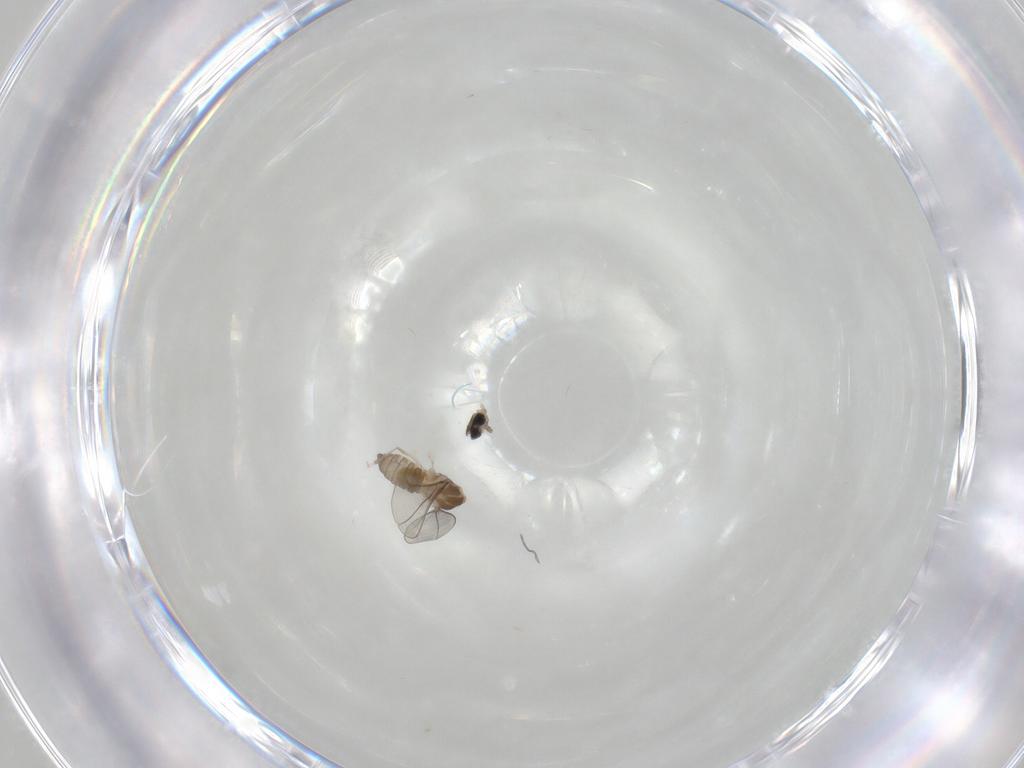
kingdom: Animalia
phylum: Arthropoda
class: Insecta
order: Diptera
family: Cecidomyiidae
